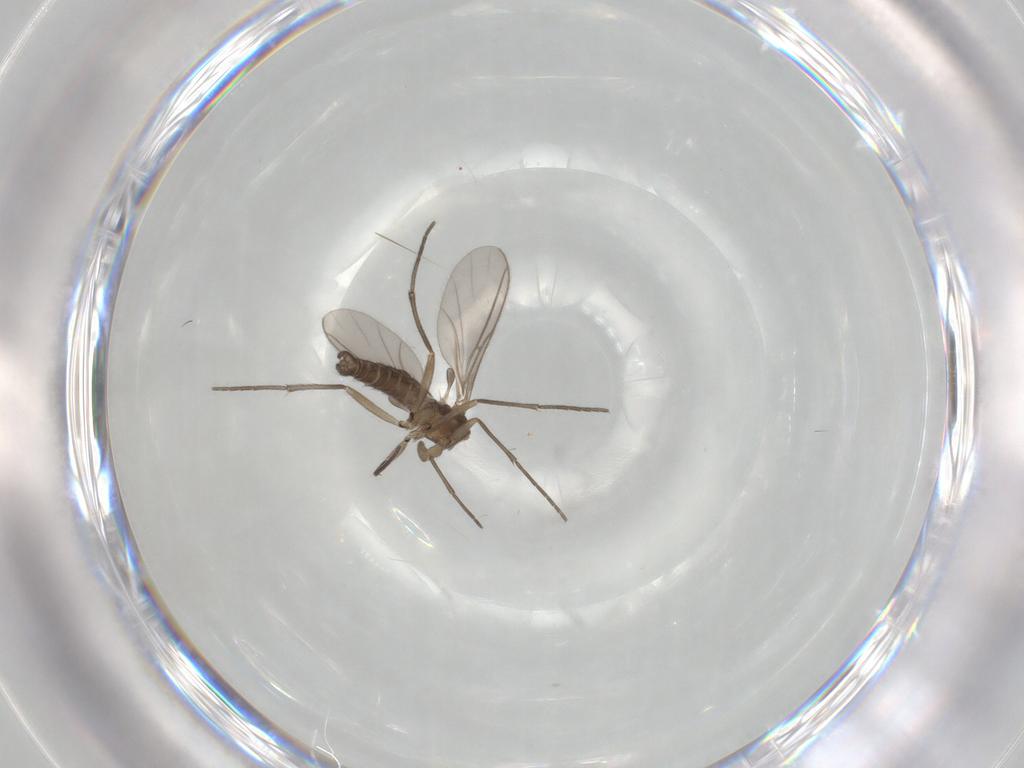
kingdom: Animalia
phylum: Arthropoda
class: Insecta
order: Diptera
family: Sciaridae
